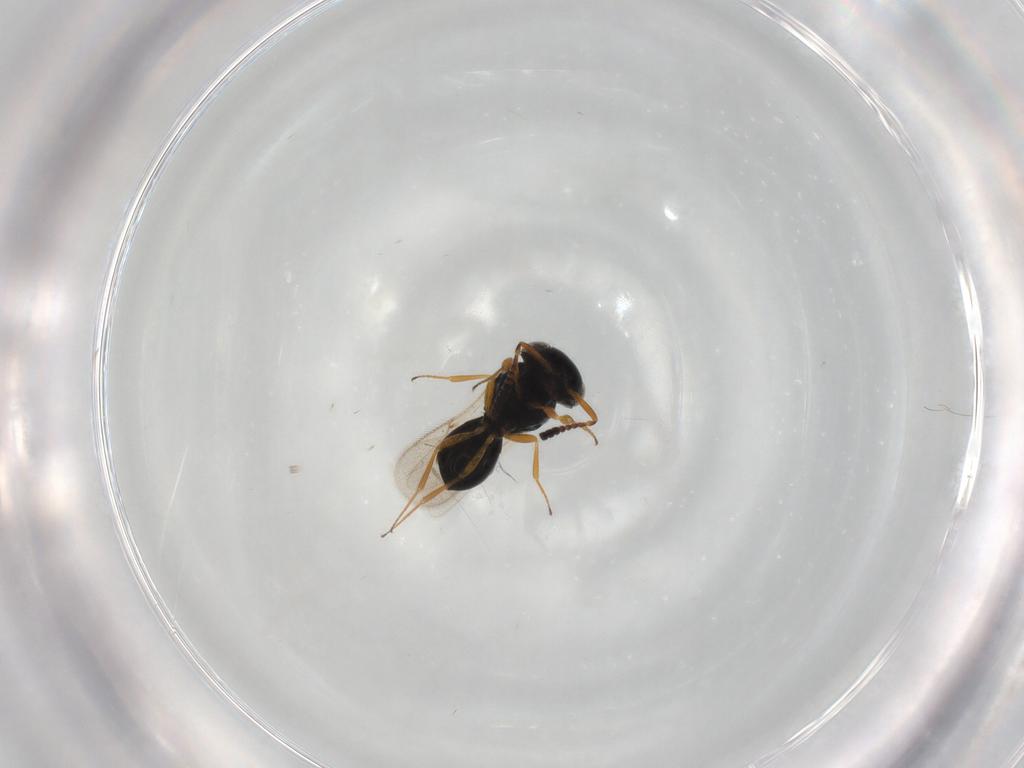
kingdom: Animalia
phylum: Arthropoda
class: Insecta
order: Hymenoptera
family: Scelionidae
